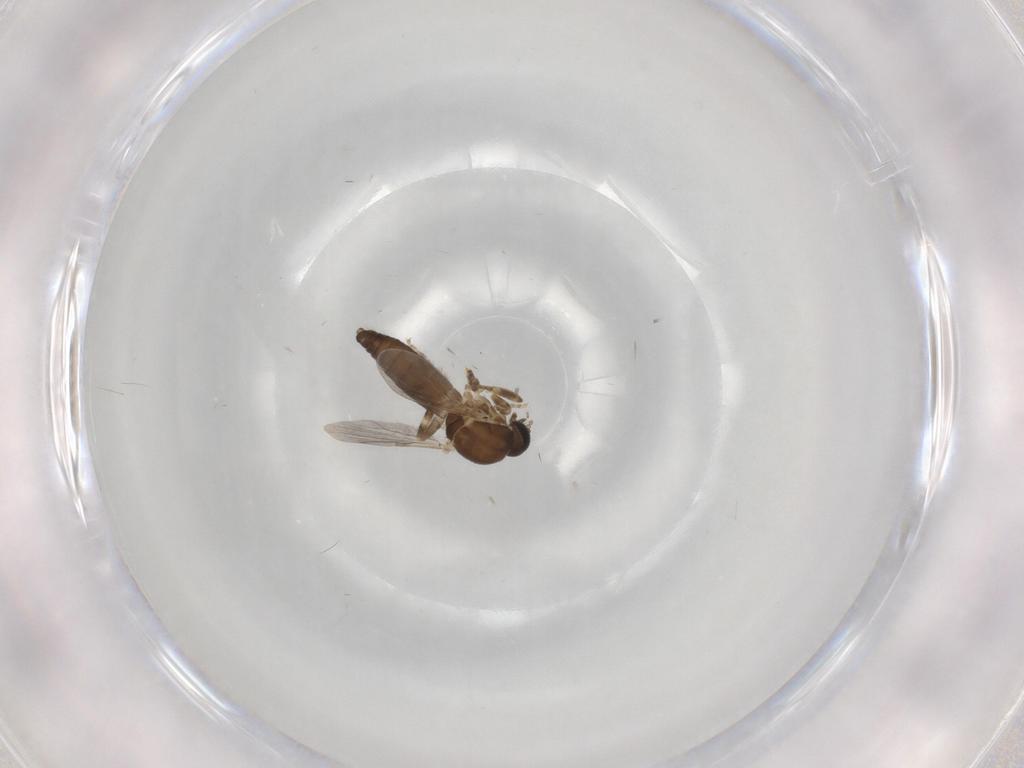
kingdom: Animalia
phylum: Arthropoda
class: Insecta
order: Diptera
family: Ceratopogonidae
